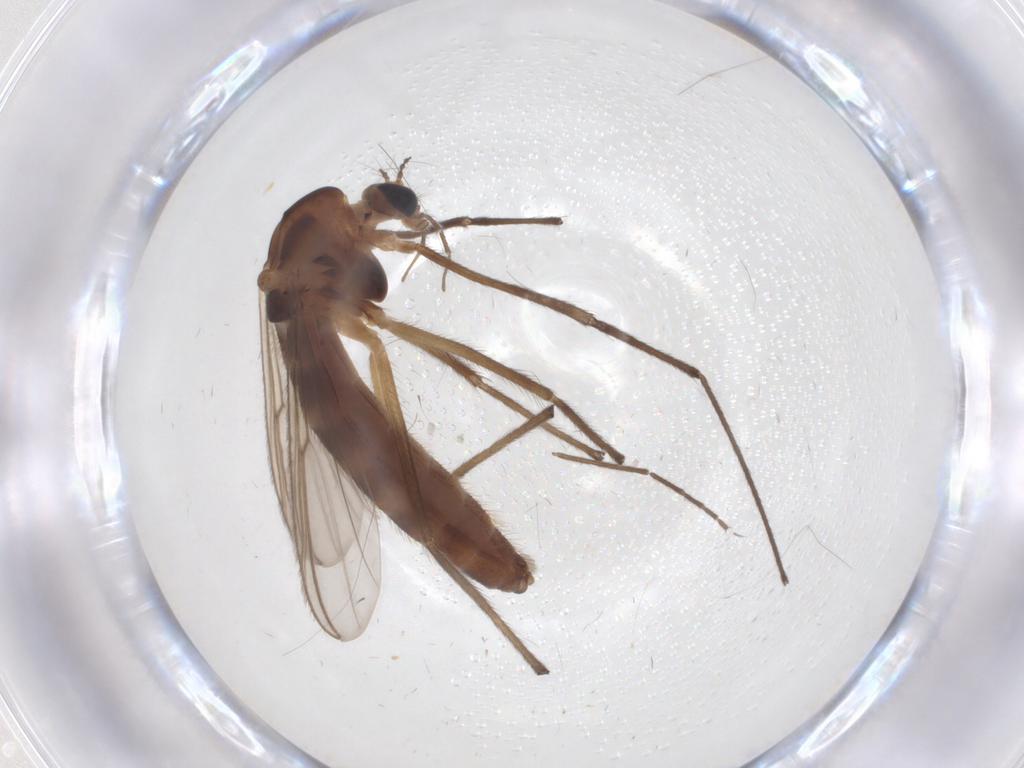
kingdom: Animalia
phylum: Arthropoda
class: Insecta
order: Diptera
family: Chironomidae
